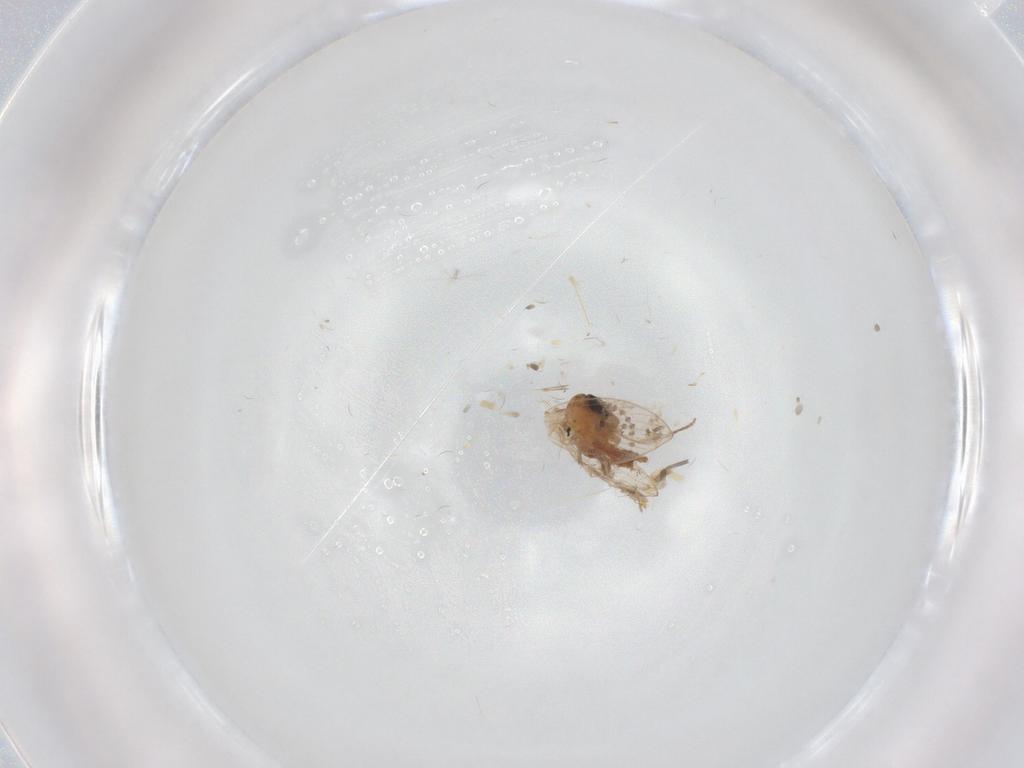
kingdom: Animalia
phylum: Arthropoda
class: Insecta
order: Diptera
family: Psychodidae
